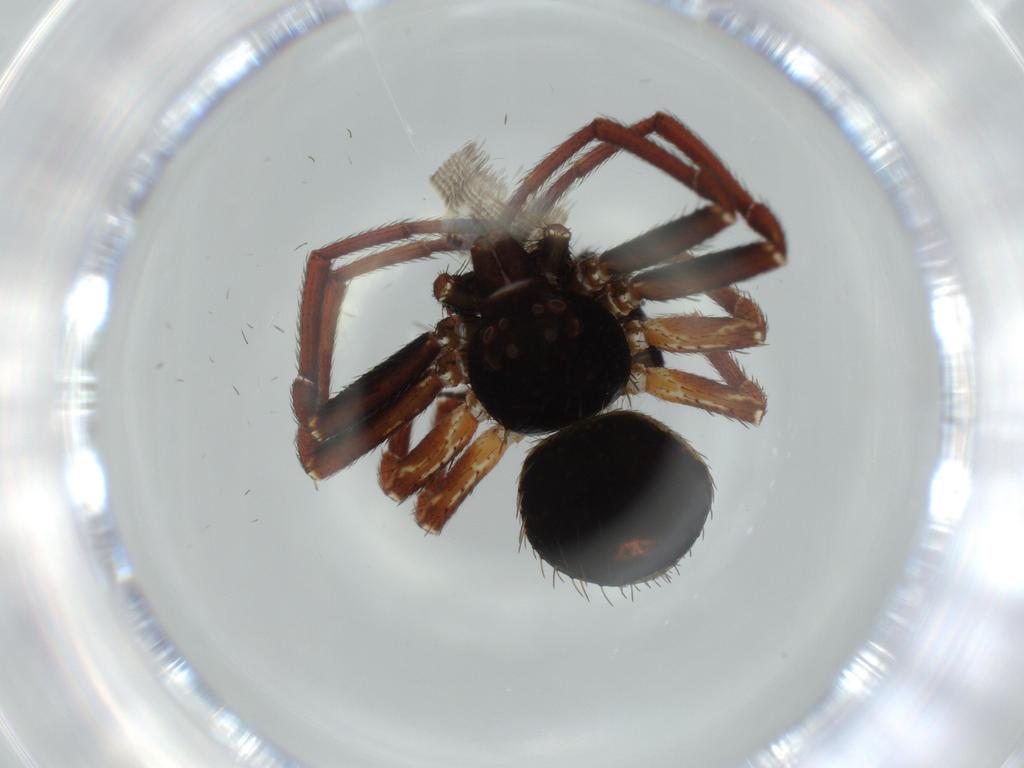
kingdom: Animalia
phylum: Arthropoda
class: Arachnida
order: Araneae
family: Thomisidae
